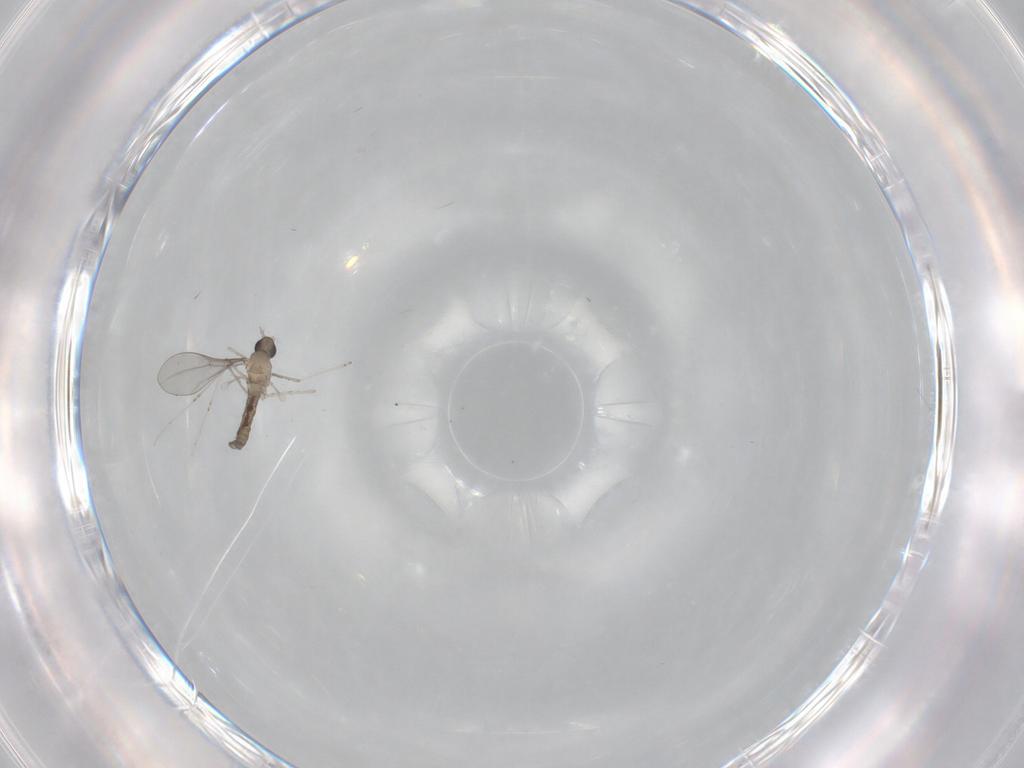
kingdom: Animalia
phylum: Arthropoda
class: Insecta
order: Diptera
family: Cecidomyiidae
